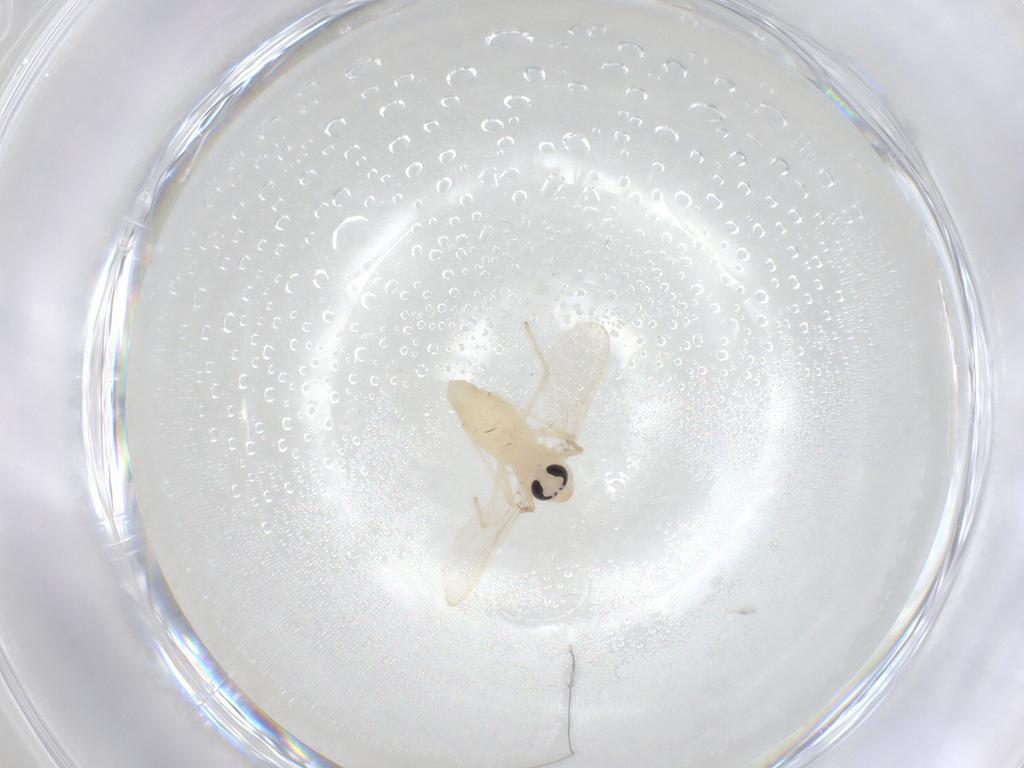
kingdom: Animalia
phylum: Arthropoda
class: Insecta
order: Diptera
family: Chironomidae
